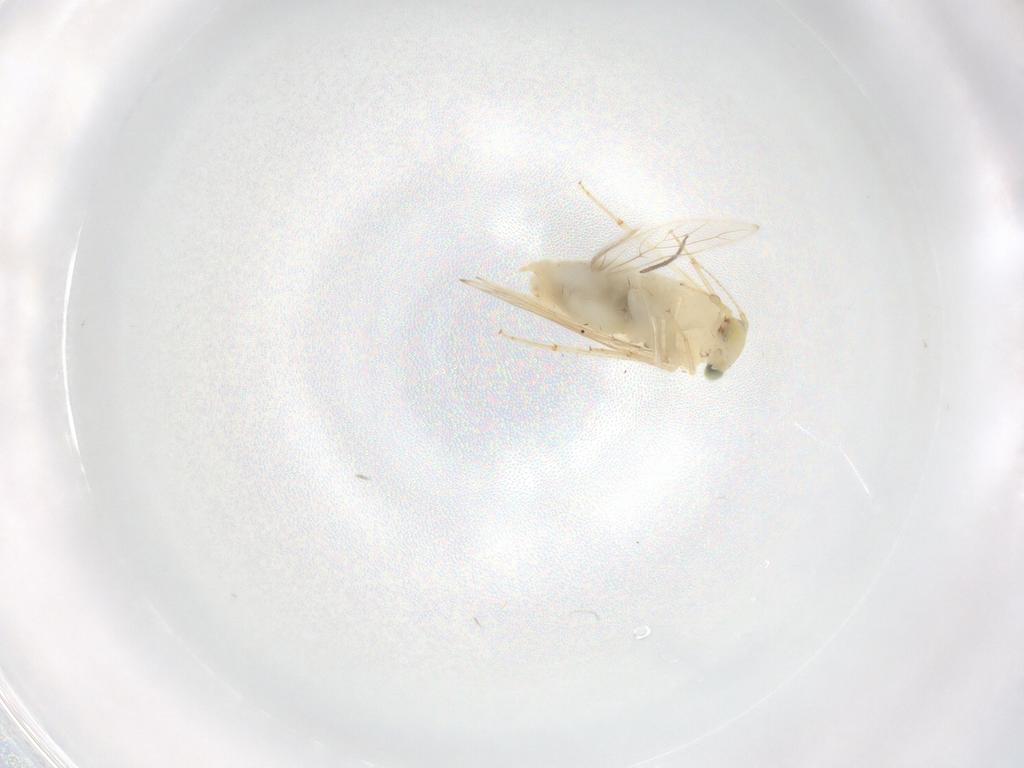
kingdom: Animalia
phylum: Arthropoda
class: Insecta
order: Psocodea
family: Lepidopsocidae
